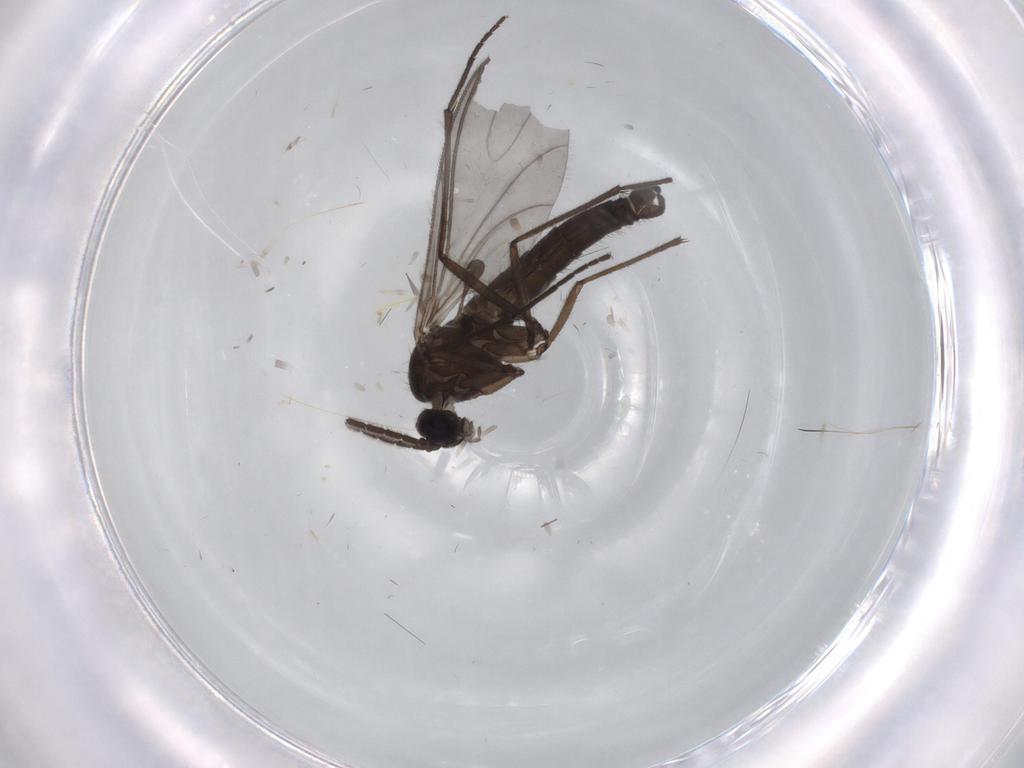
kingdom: Animalia
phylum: Arthropoda
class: Insecta
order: Diptera
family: Sciaridae
